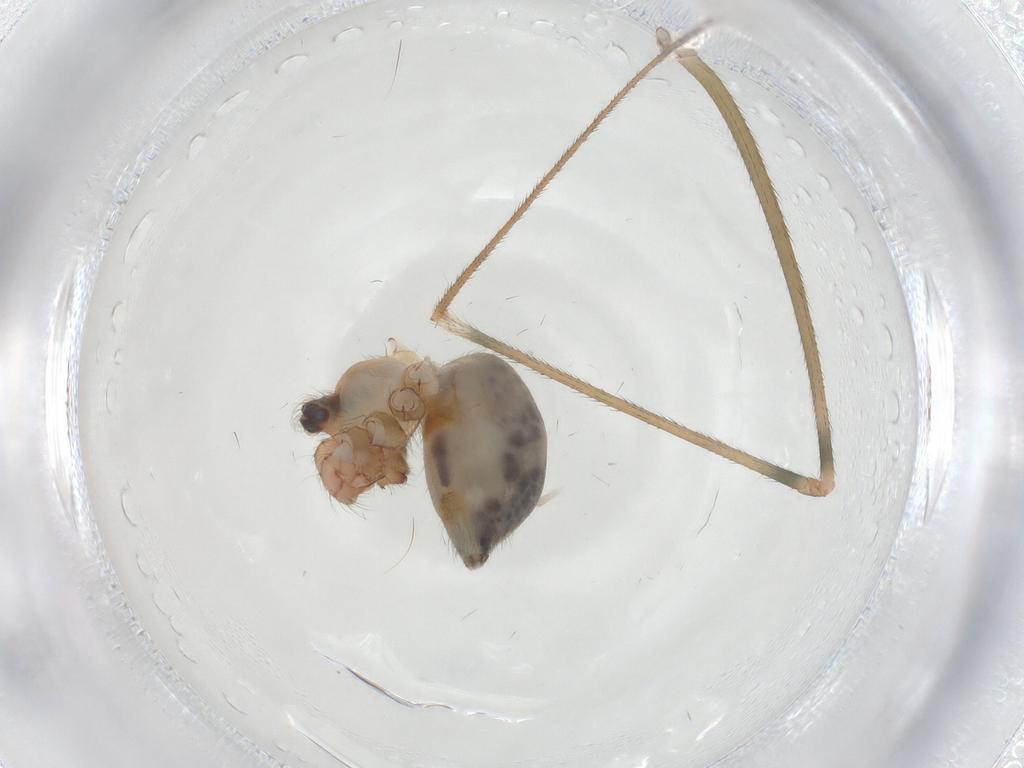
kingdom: Animalia
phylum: Arthropoda
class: Arachnida
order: Araneae
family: Pholcidae
